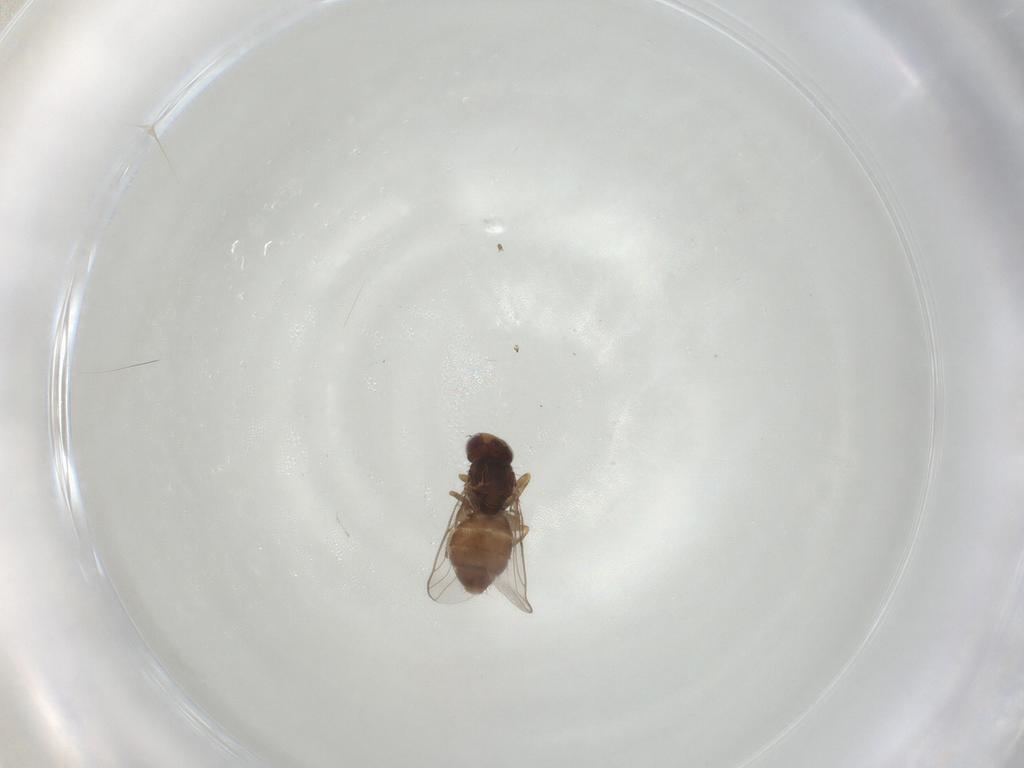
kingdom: Animalia
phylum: Arthropoda
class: Insecta
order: Diptera
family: Chloropidae
